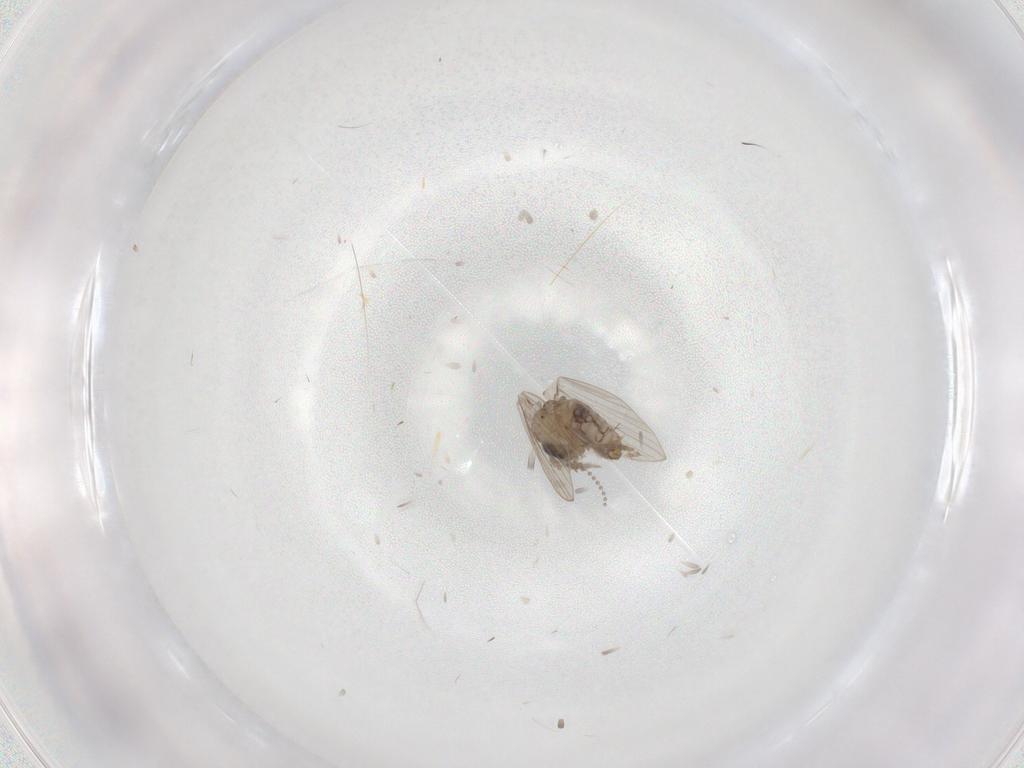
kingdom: Animalia
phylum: Arthropoda
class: Insecta
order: Diptera
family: Psychodidae
